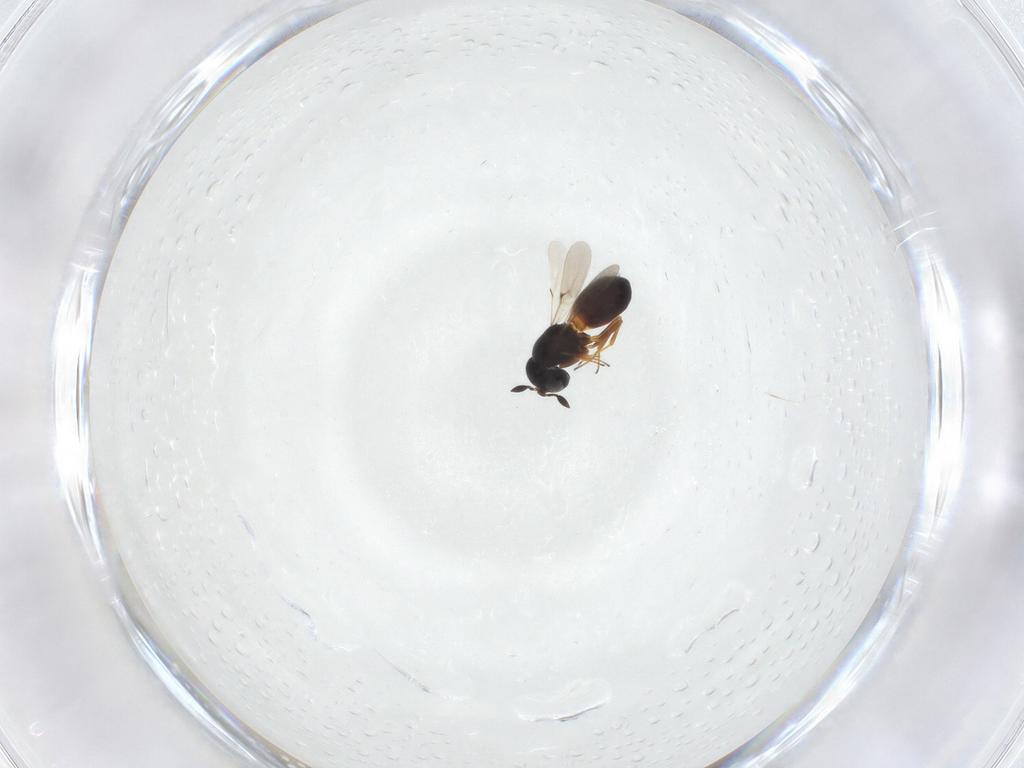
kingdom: Animalia
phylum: Arthropoda
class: Insecta
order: Hymenoptera
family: Scelionidae
